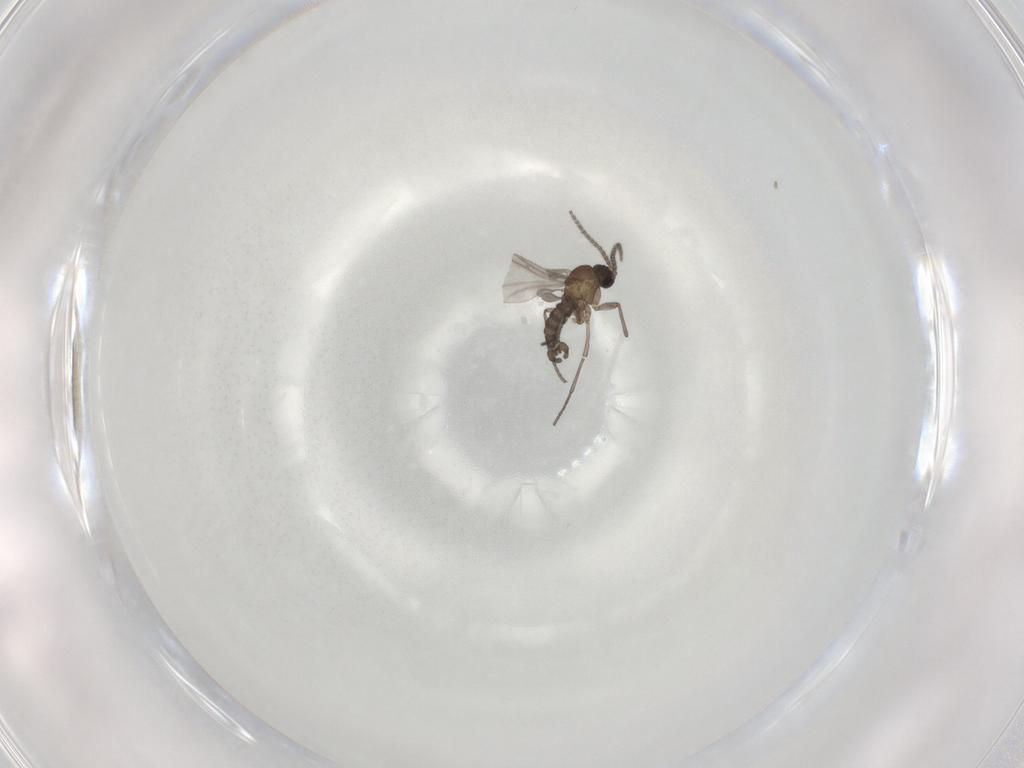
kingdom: Animalia
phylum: Arthropoda
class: Insecta
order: Diptera
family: Sciaridae
